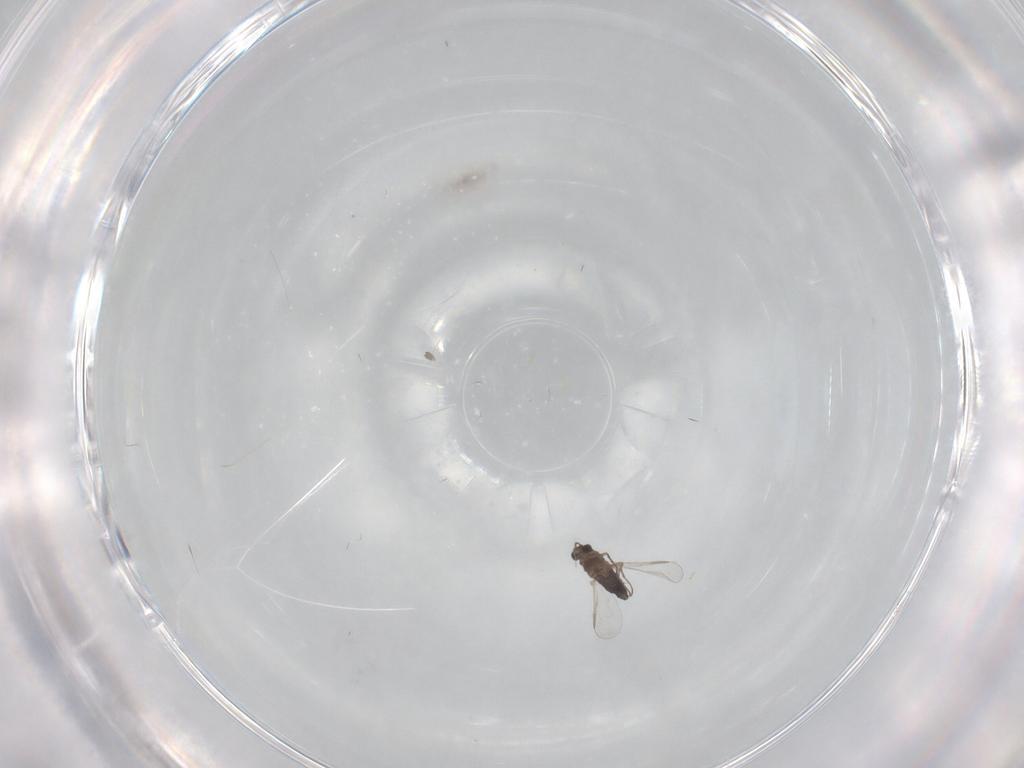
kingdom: Animalia
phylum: Arthropoda
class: Insecta
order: Diptera
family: Chironomidae
